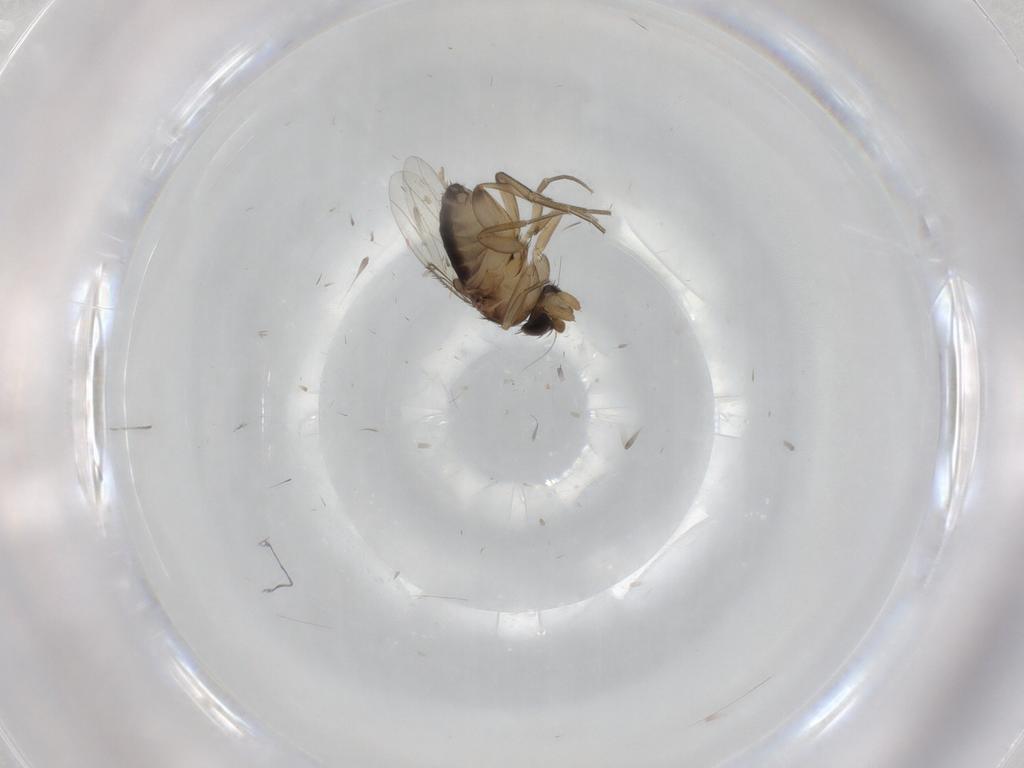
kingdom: Animalia
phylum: Arthropoda
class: Insecta
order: Diptera
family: Phoridae
